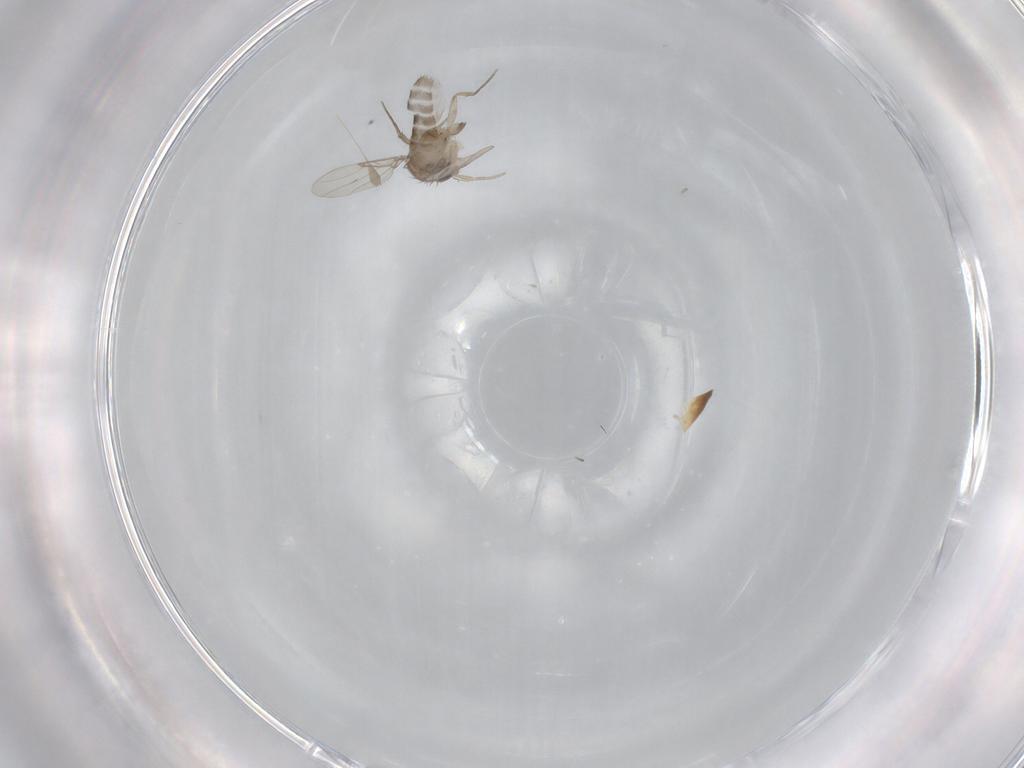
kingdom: Animalia
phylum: Arthropoda
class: Insecta
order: Diptera
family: Phoridae
